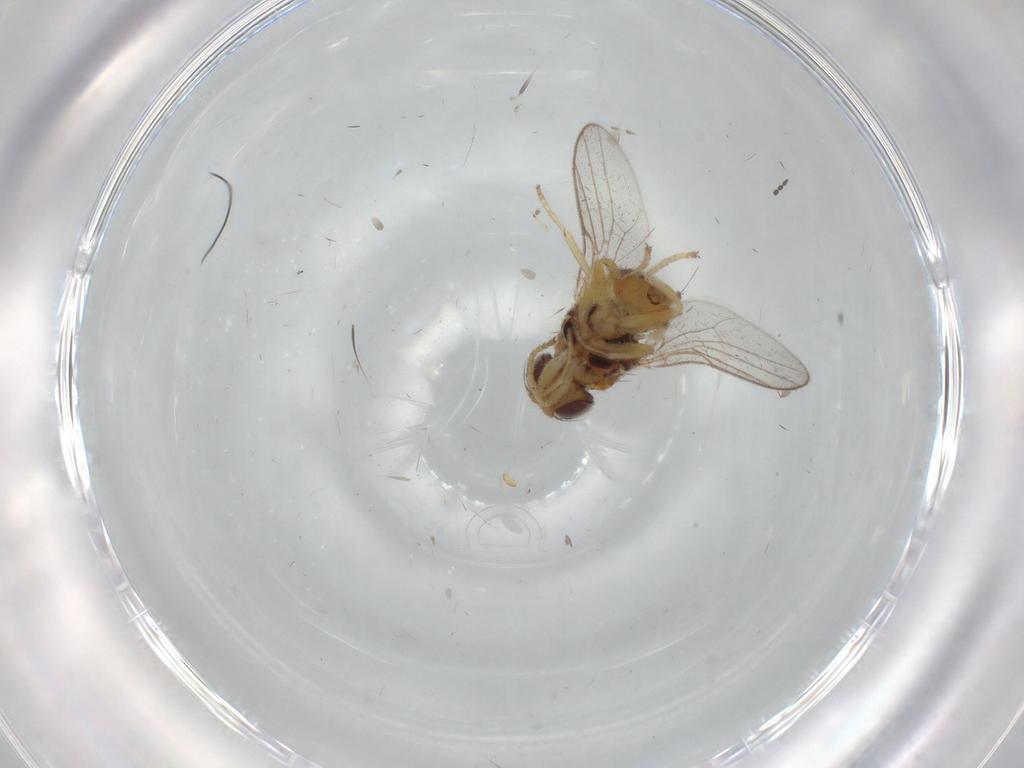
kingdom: Animalia
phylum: Arthropoda
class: Insecta
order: Diptera
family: Chloropidae
